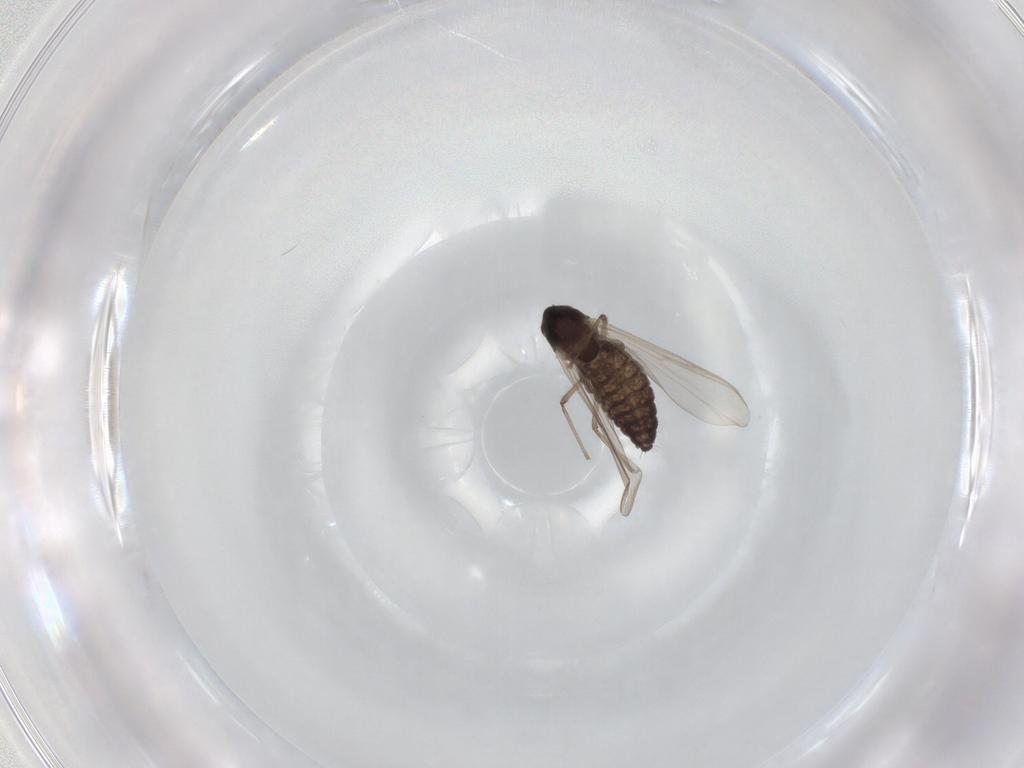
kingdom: Animalia
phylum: Arthropoda
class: Insecta
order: Diptera
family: Chironomidae
